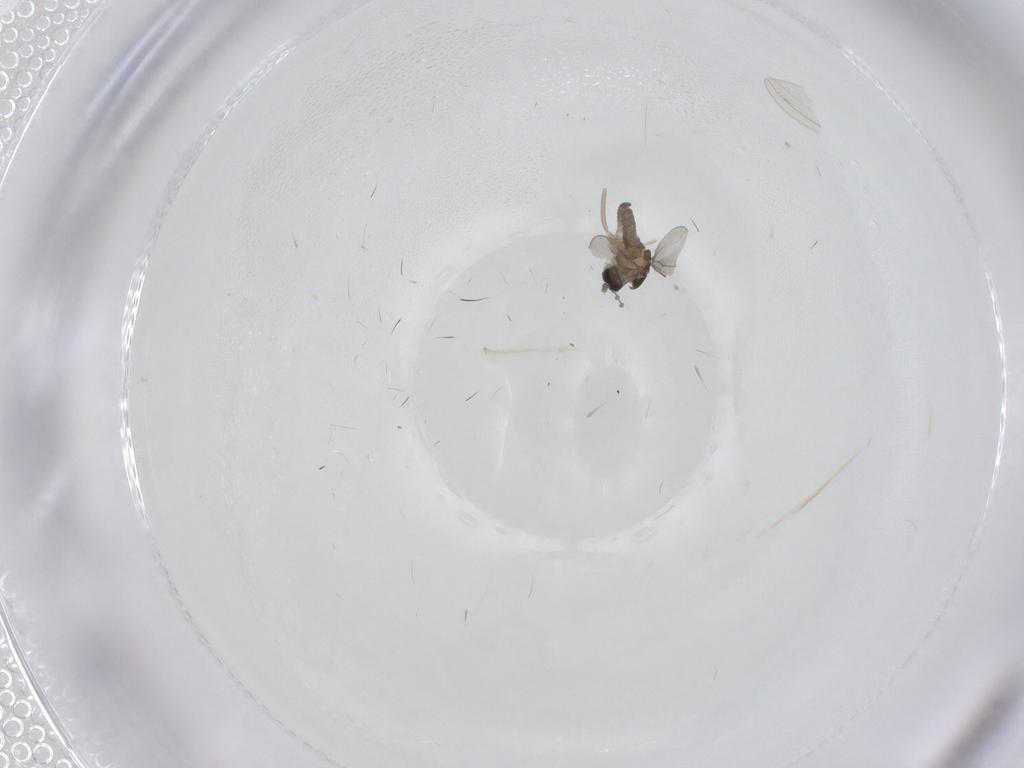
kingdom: Animalia
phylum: Arthropoda
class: Insecta
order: Diptera
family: Chironomidae
